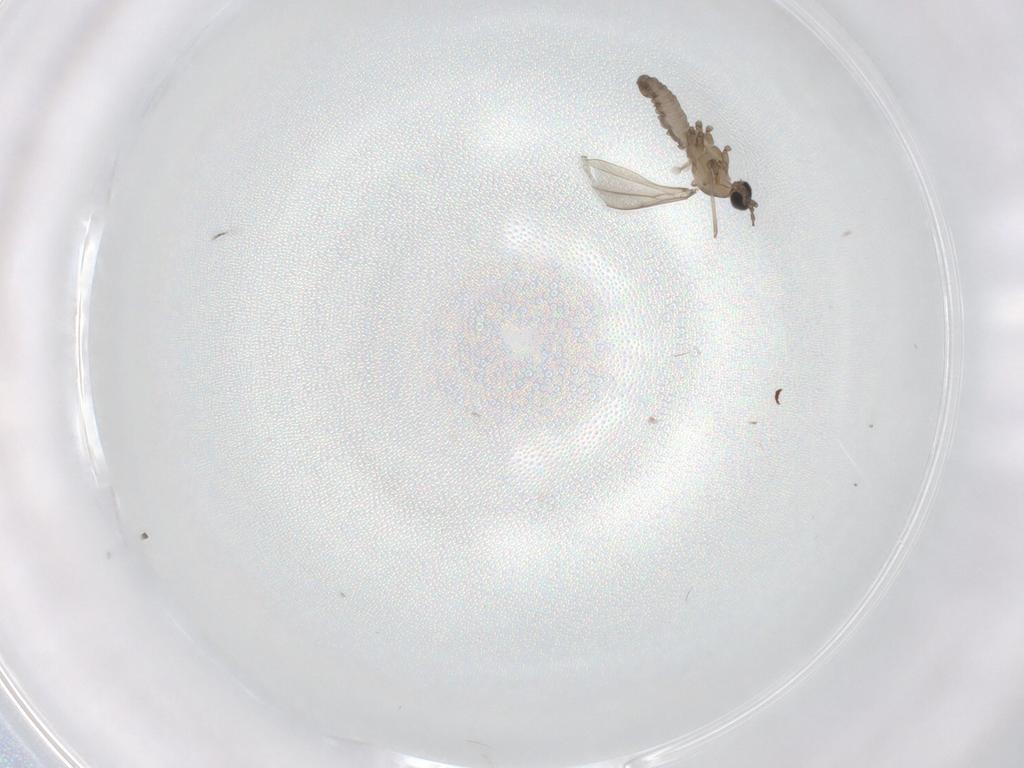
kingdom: Animalia
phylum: Arthropoda
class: Insecta
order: Diptera
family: Cecidomyiidae
